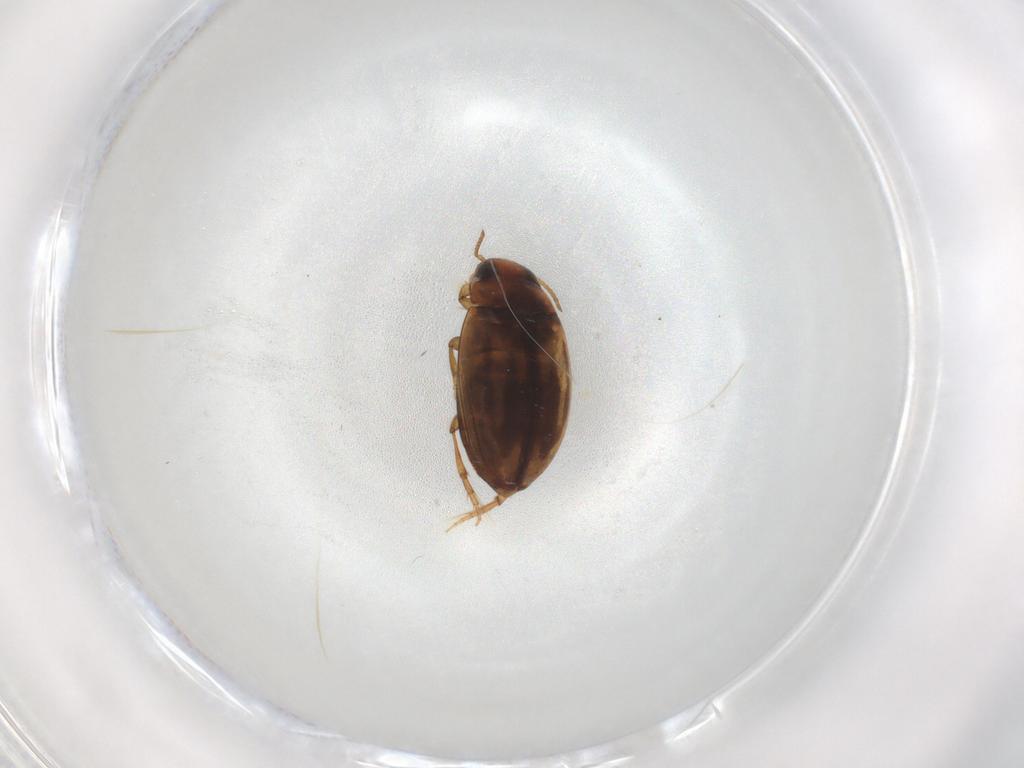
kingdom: Animalia
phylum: Arthropoda
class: Insecta
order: Coleoptera
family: Dytiscidae
